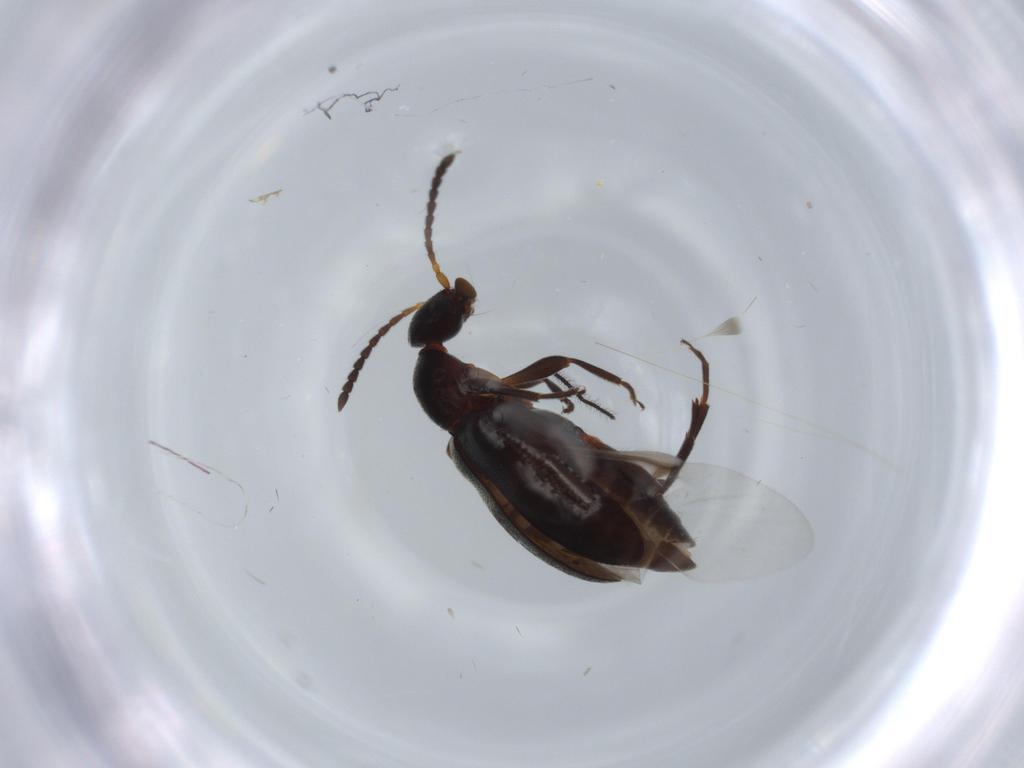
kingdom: Animalia
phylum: Arthropoda
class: Insecta
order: Coleoptera
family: Anthicidae
